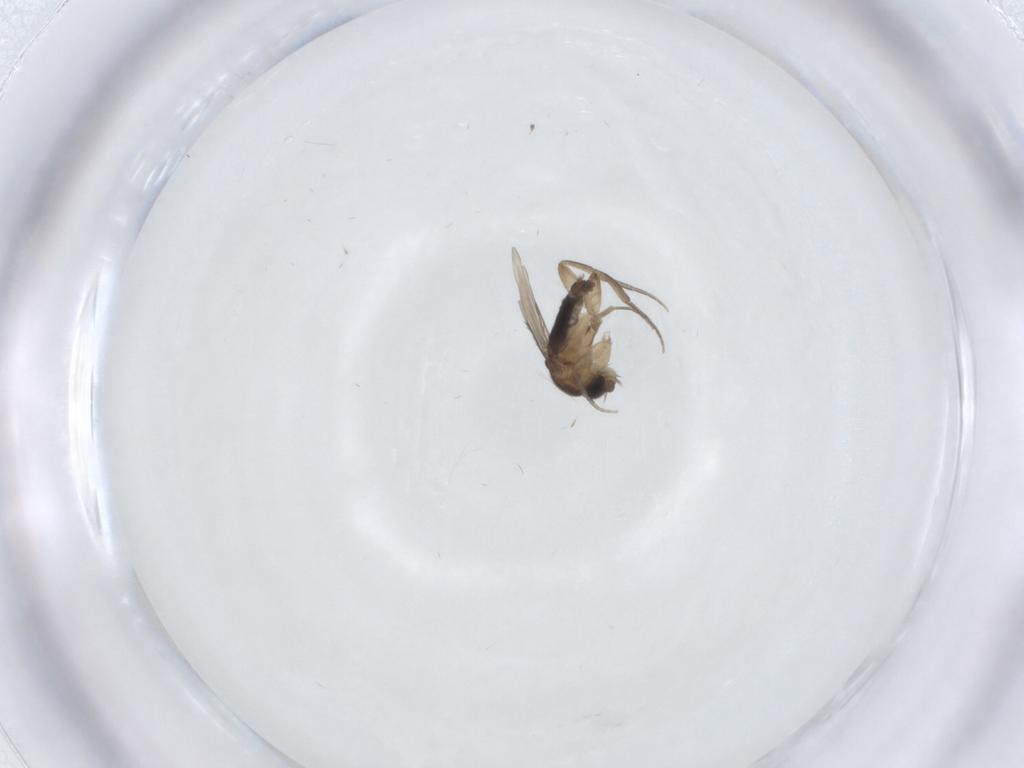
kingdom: Animalia
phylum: Arthropoda
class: Insecta
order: Diptera
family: Phoridae
